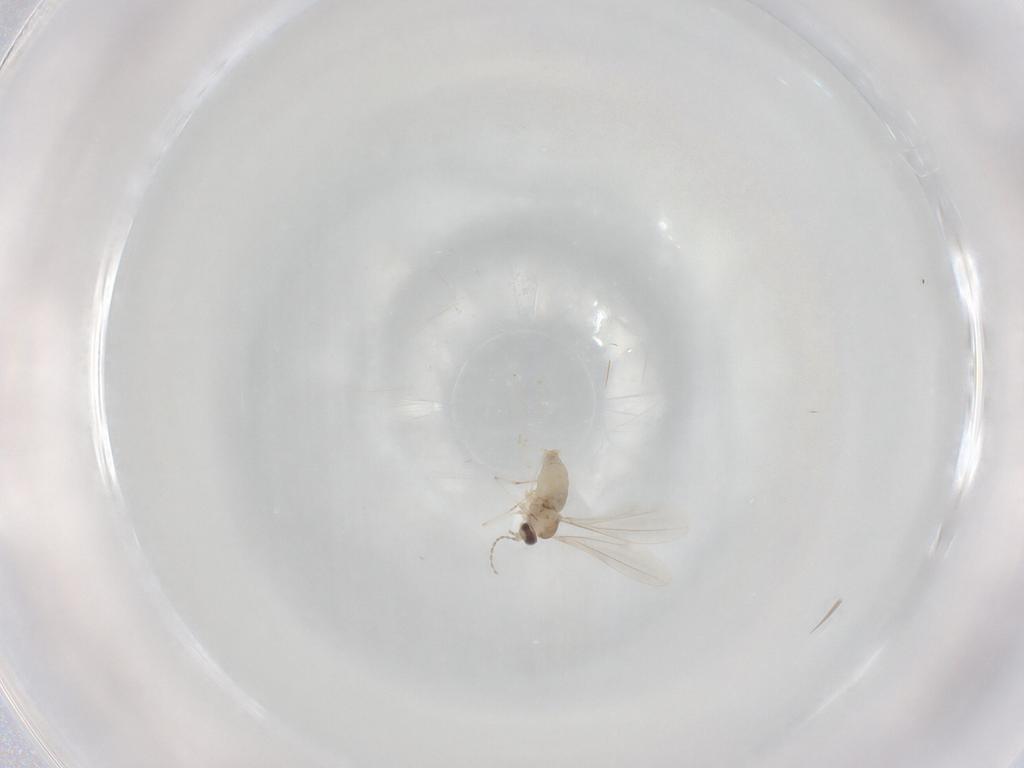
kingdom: Animalia
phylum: Arthropoda
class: Insecta
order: Diptera
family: Cecidomyiidae
